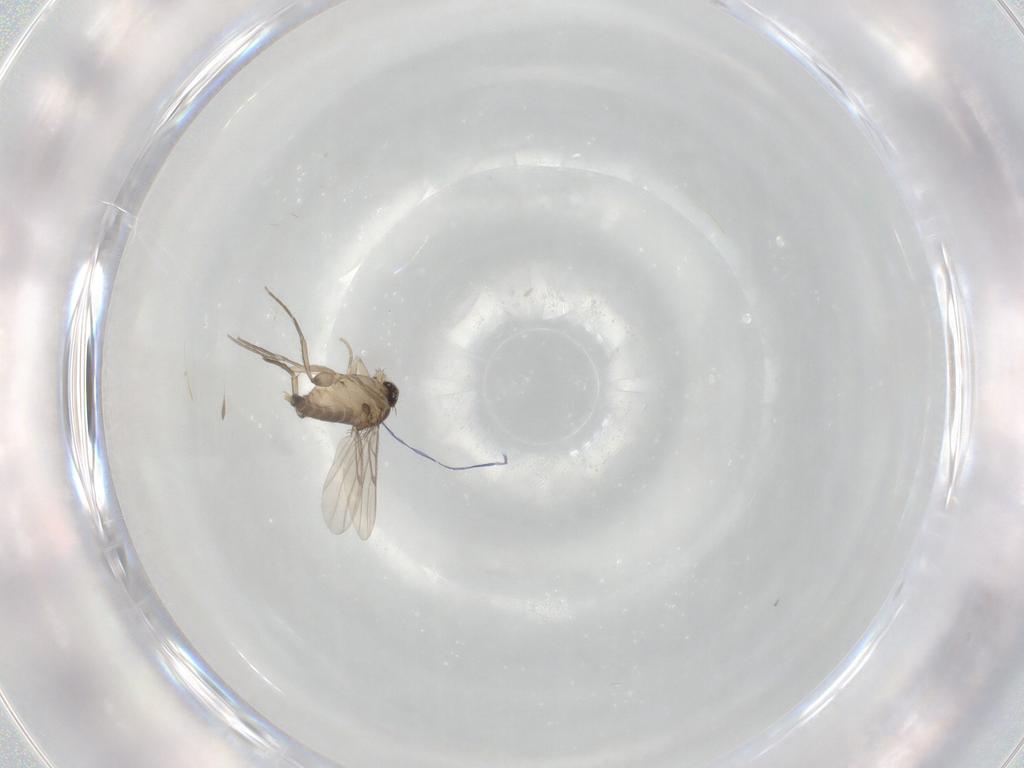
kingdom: Animalia
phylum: Arthropoda
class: Insecta
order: Diptera
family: Phoridae
